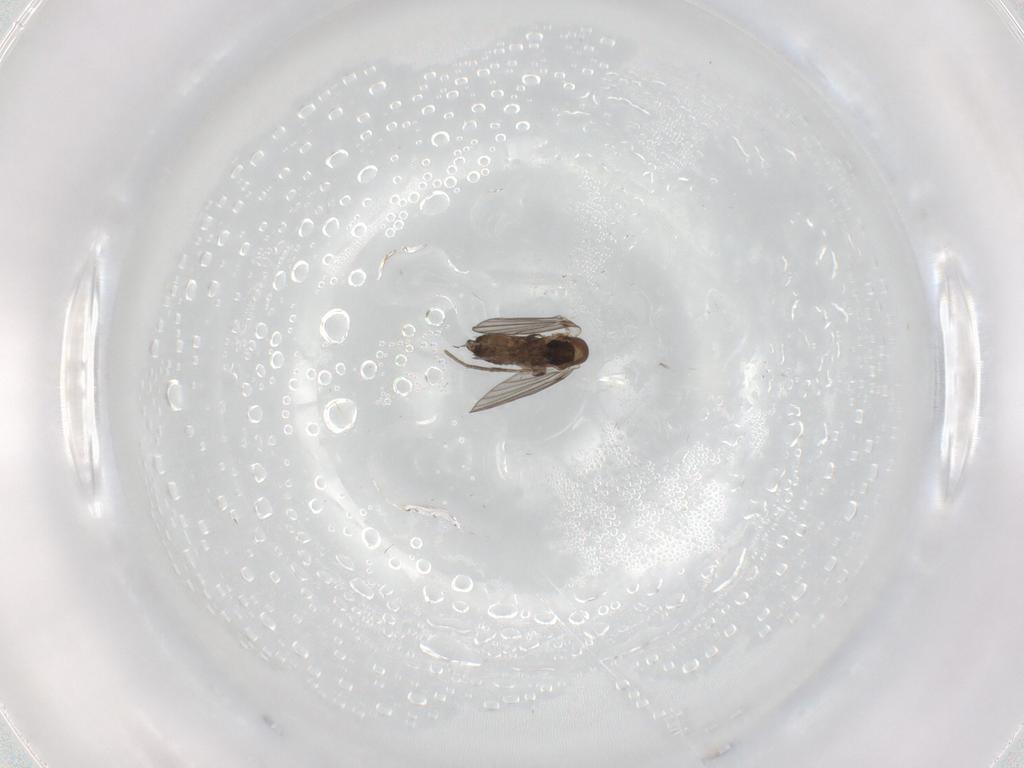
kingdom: Animalia
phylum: Arthropoda
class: Insecta
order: Diptera
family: Psychodidae
